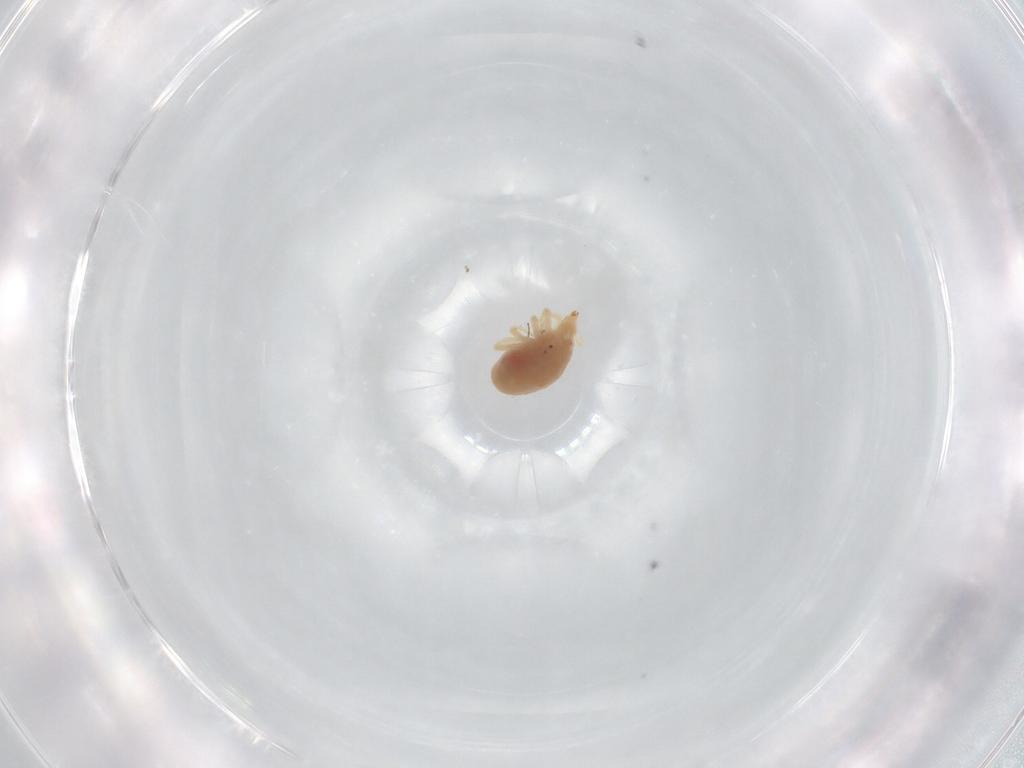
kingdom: Animalia
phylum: Arthropoda
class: Arachnida
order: Trombidiformes
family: Bdellidae
